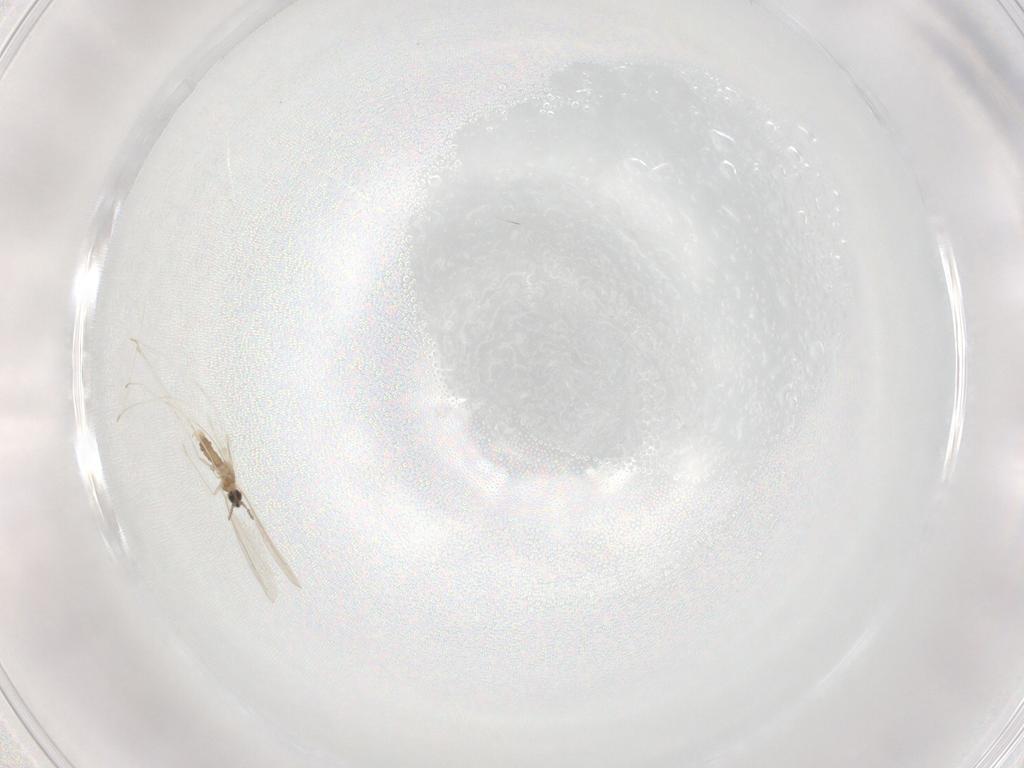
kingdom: Animalia
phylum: Arthropoda
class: Insecta
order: Diptera
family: Cecidomyiidae
